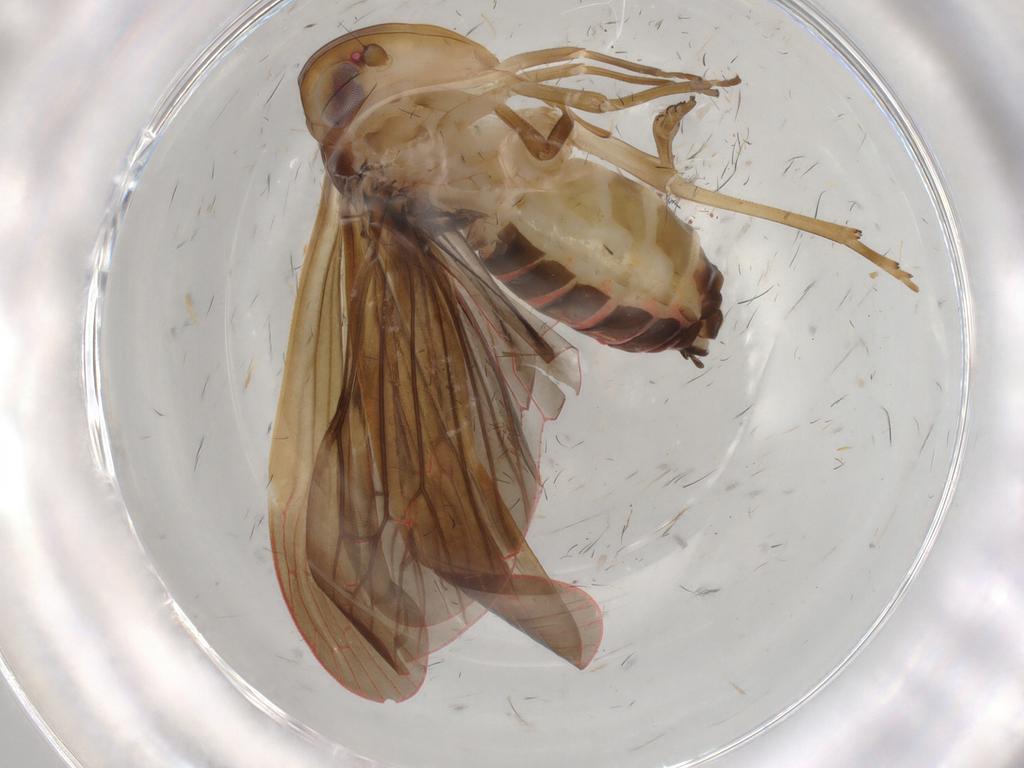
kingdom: Animalia
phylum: Arthropoda
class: Insecta
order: Hemiptera
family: Achilidae
